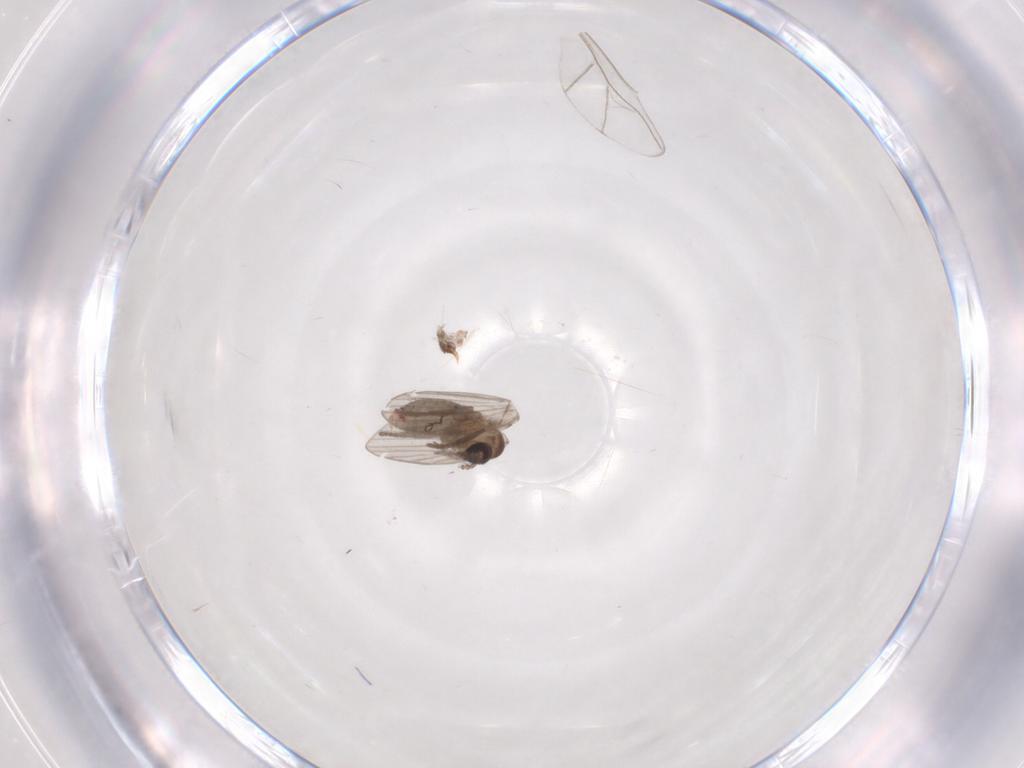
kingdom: Animalia
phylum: Arthropoda
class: Insecta
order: Diptera
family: Psychodidae
